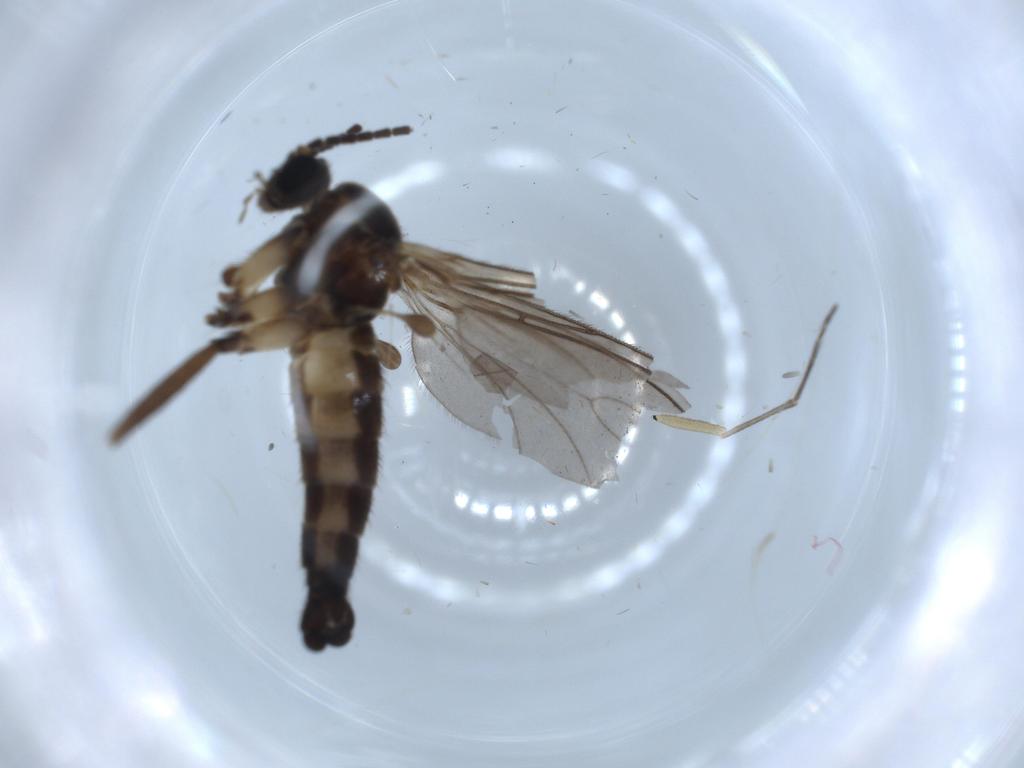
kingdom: Animalia
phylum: Arthropoda
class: Insecta
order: Diptera
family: Sciaridae
